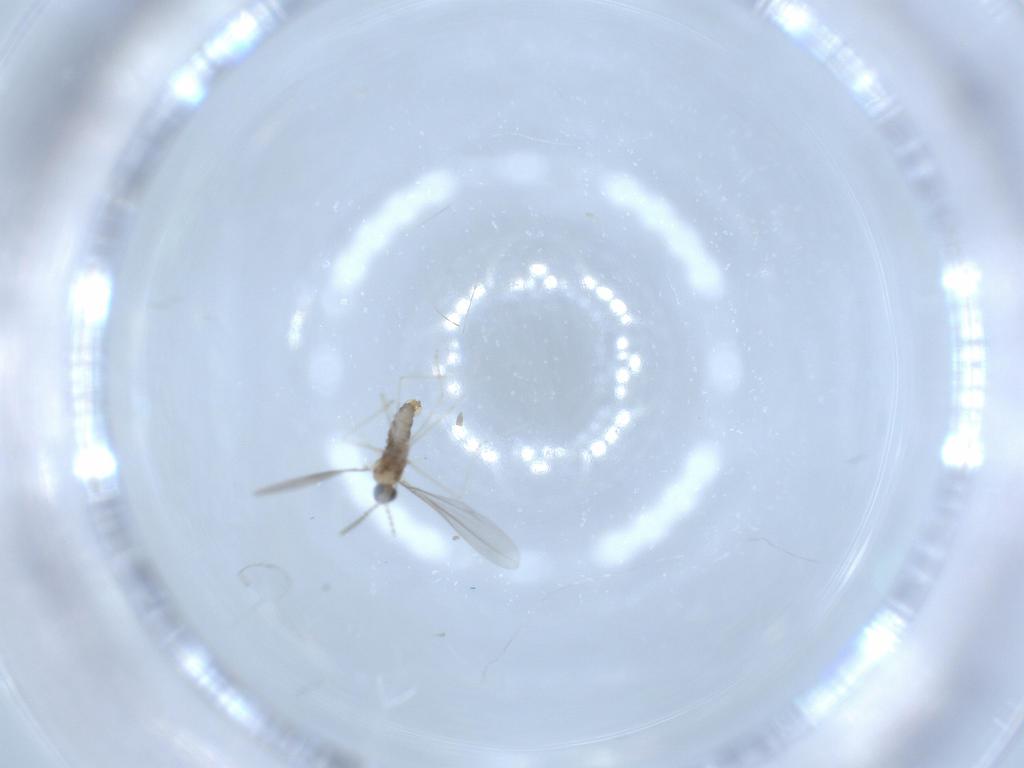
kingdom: Animalia
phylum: Arthropoda
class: Insecta
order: Diptera
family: Cecidomyiidae
